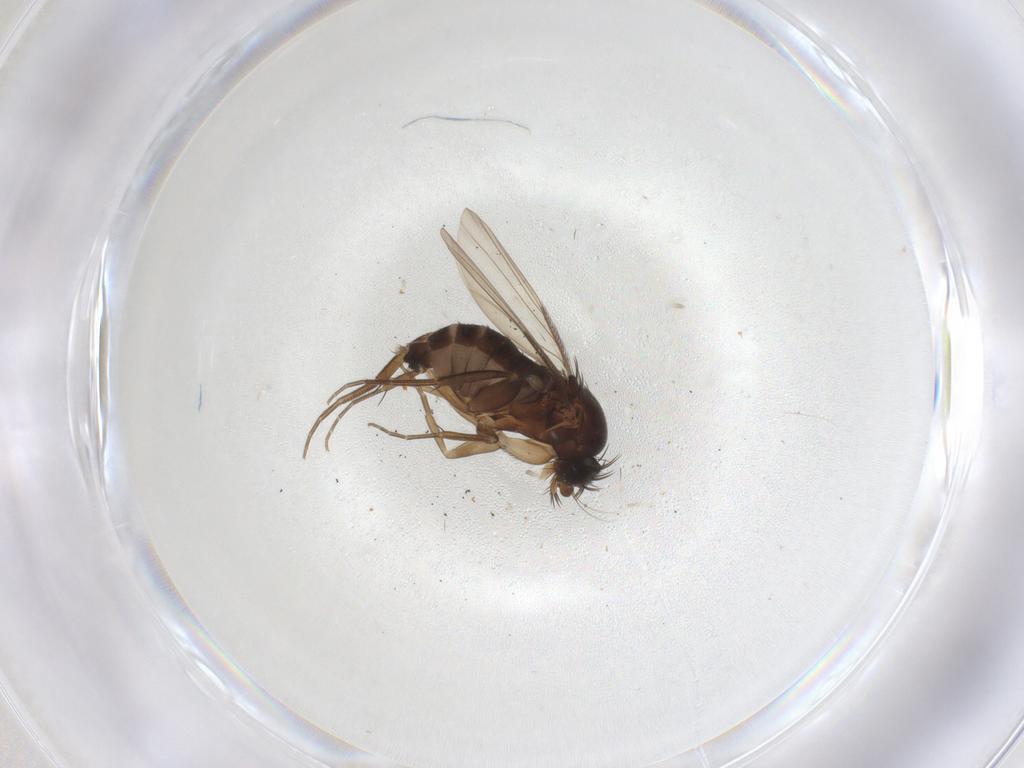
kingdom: Animalia
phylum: Arthropoda
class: Insecta
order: Diptera
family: Phoridae
